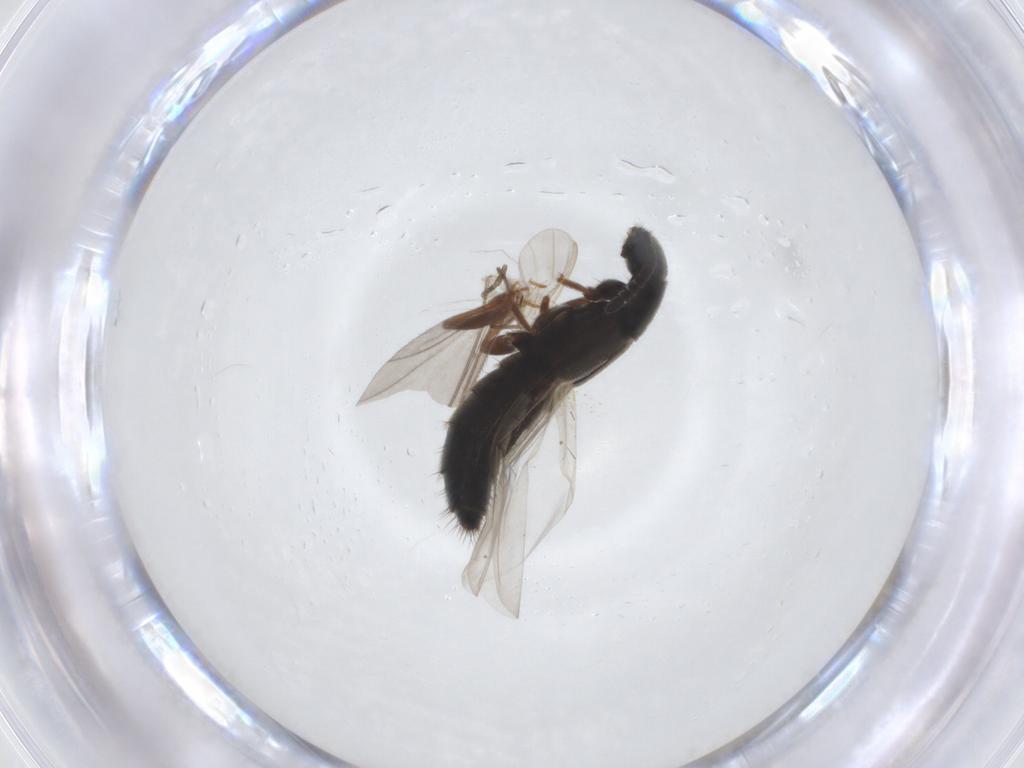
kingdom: Animalia
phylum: Arthropoda
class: Insecta
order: Coleoptera
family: Staphylinidae
